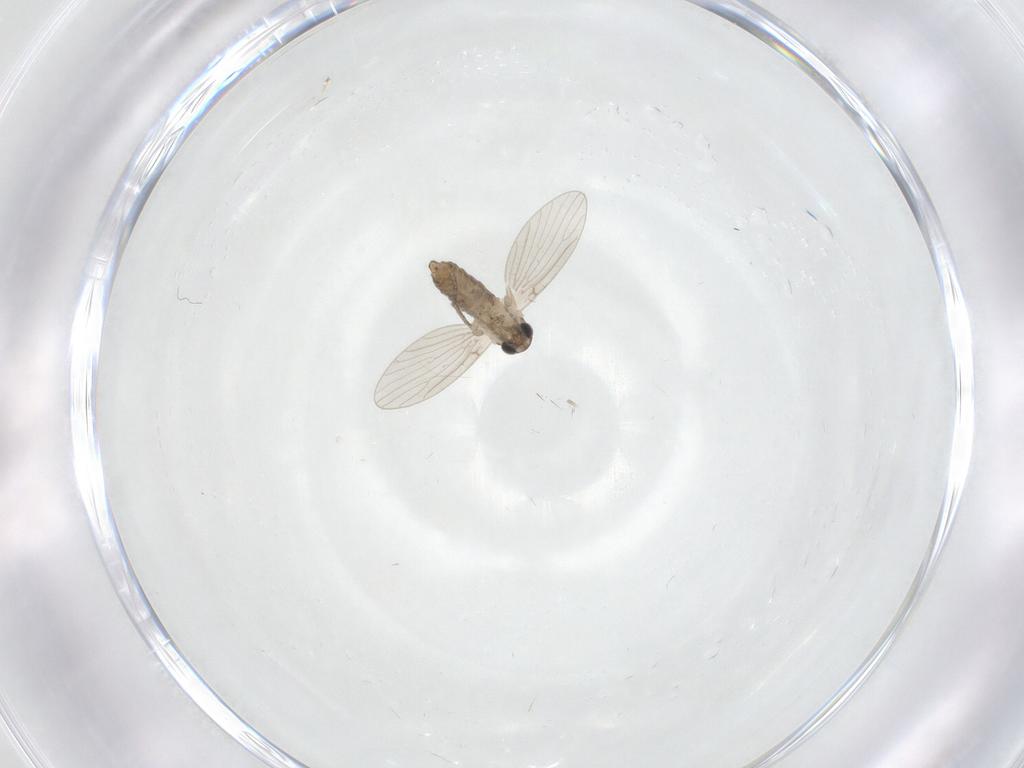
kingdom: Animalia
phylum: Arthropoda
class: Insecta
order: Diptera
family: Psychodidae
